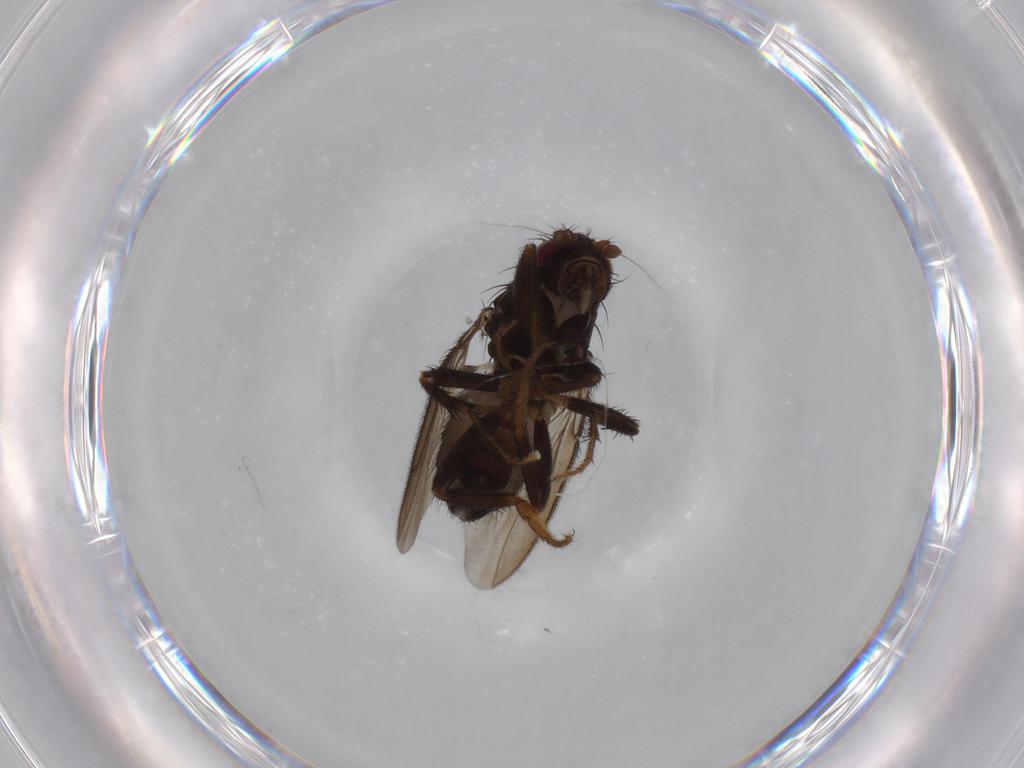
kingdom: Animalia
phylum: Arthropoda
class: Insecta
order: Diptera
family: Sphaeroceridae
